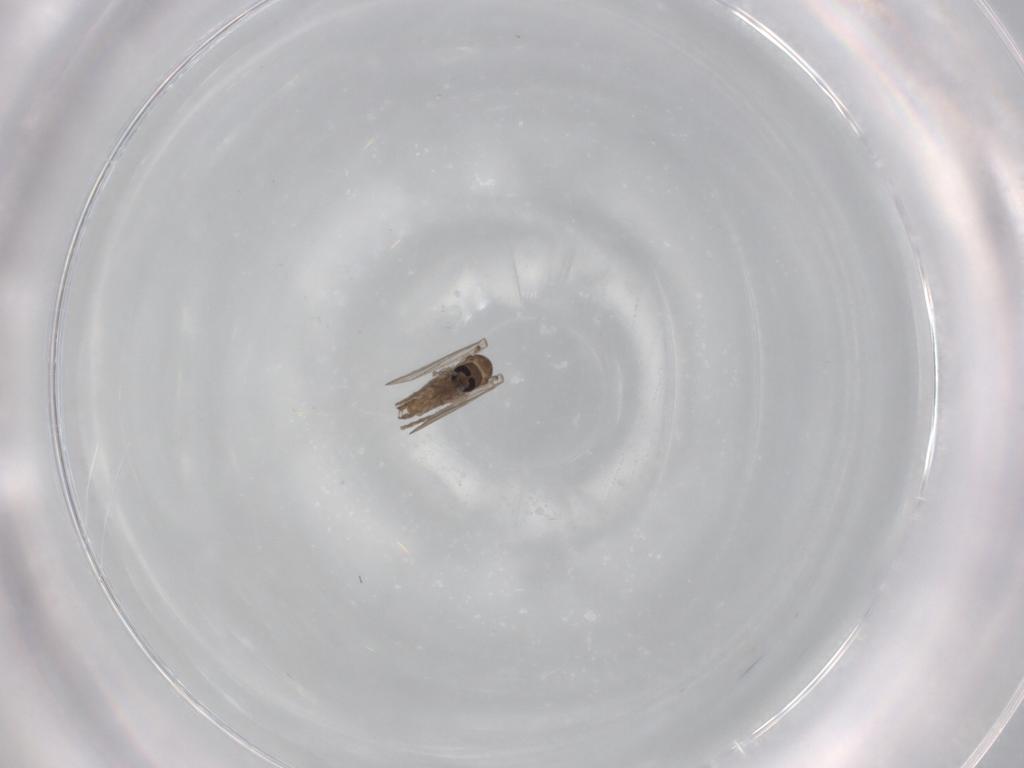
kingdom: Animalia
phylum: Arthropoda
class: Insecta
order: Diptera
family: Psychodidae
